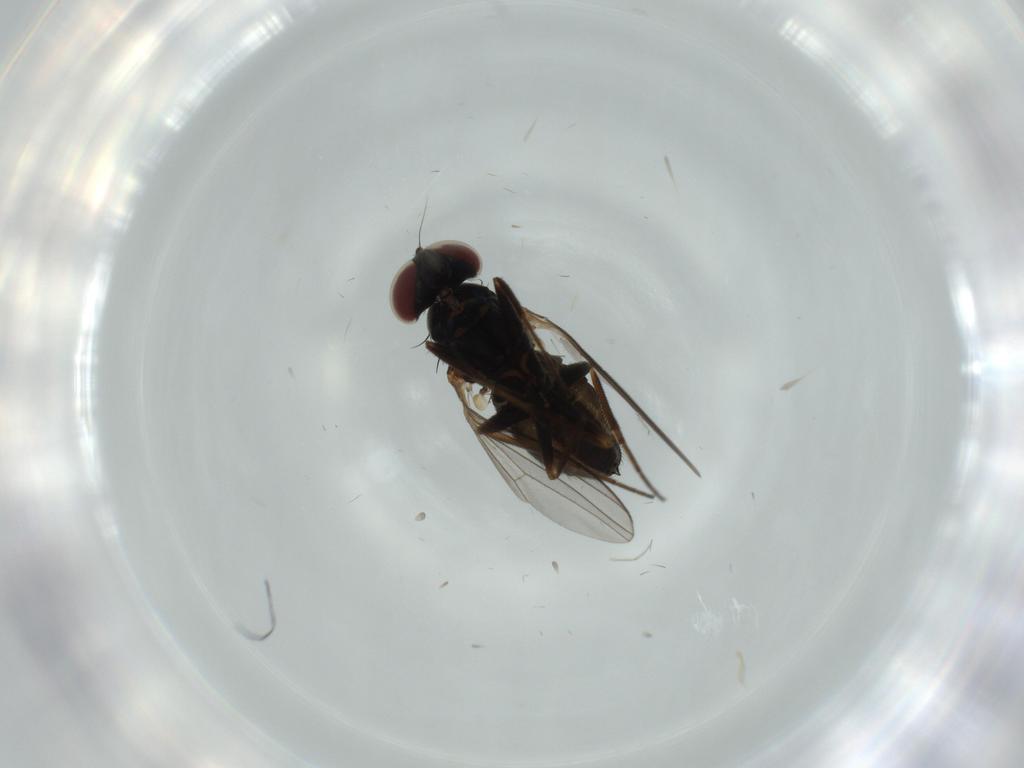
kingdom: Animalia
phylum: Arthropoda
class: Insecta
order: Diptera
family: Dolichopodidae
